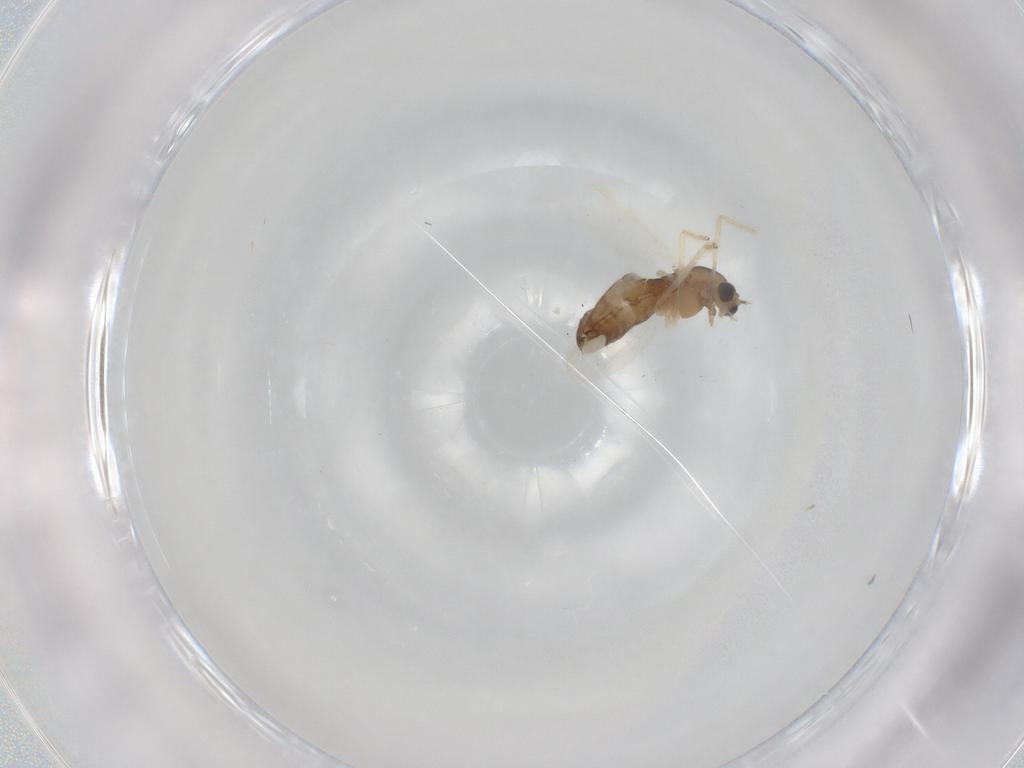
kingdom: Animalia
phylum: Arthropoda
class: Insecta
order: Diptera
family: Chironomidae
